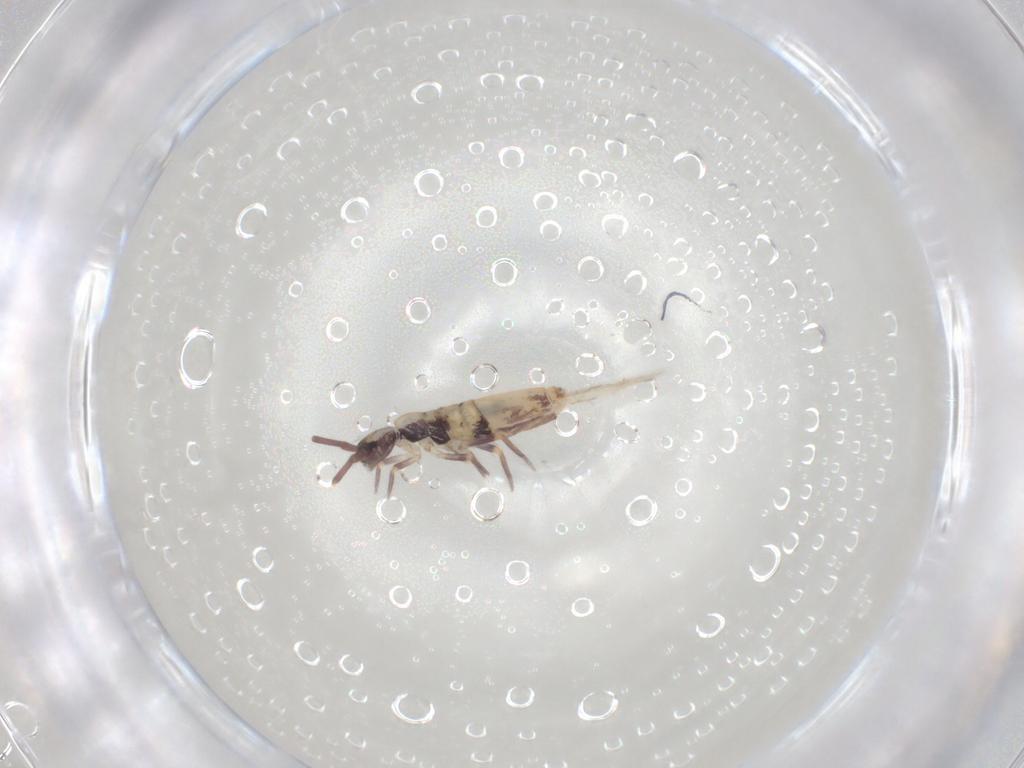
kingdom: Animalia
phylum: Arthropoda
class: Collembola
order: Entomobryomorpha
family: Entomobryidae
